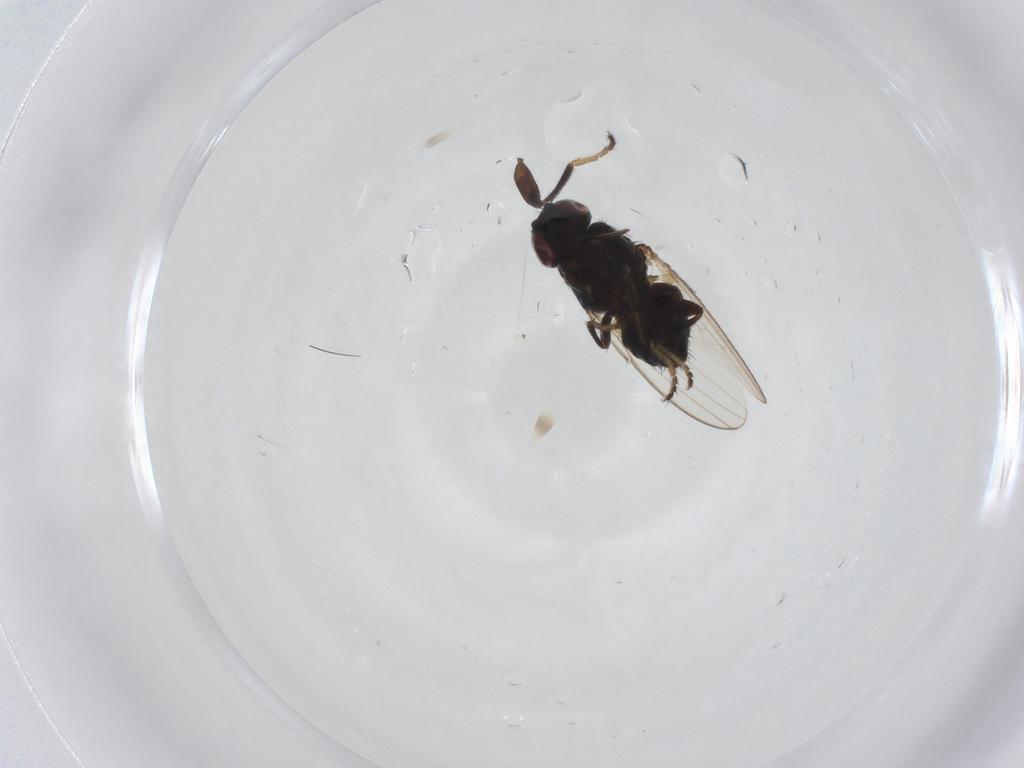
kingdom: Animalia
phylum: Arthropoda
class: Insecta
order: Diptera
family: Milichiidae
